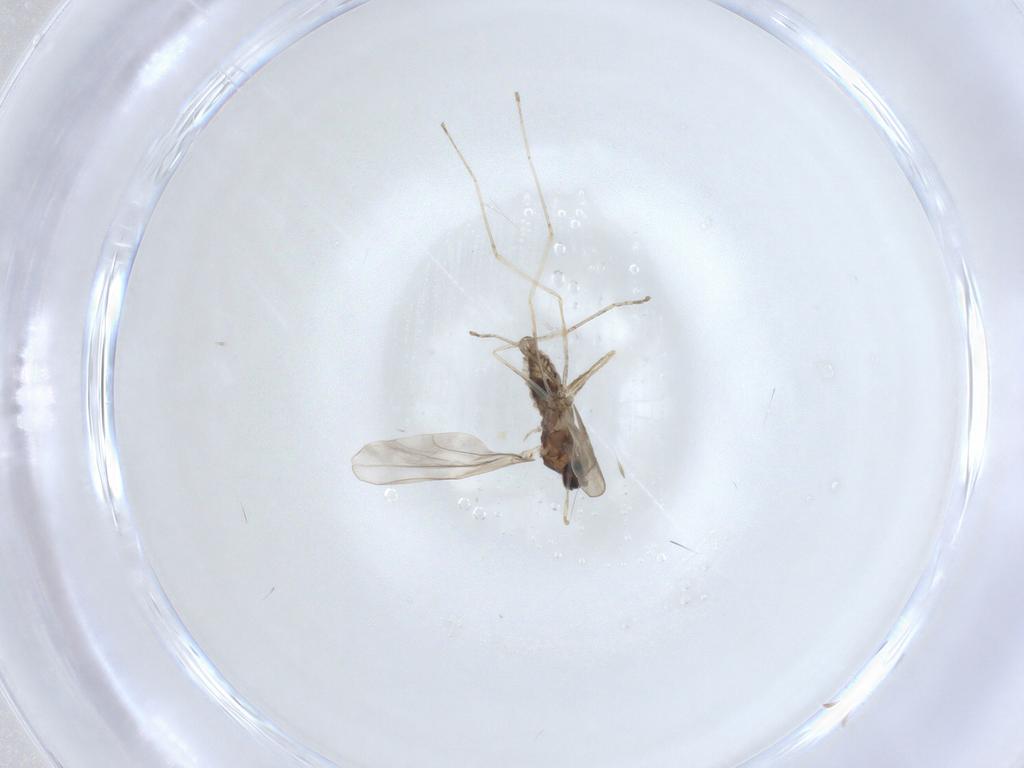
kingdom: Animalia
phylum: Arthropoda
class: Insecta
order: Diptera
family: Cecidomyiidae
